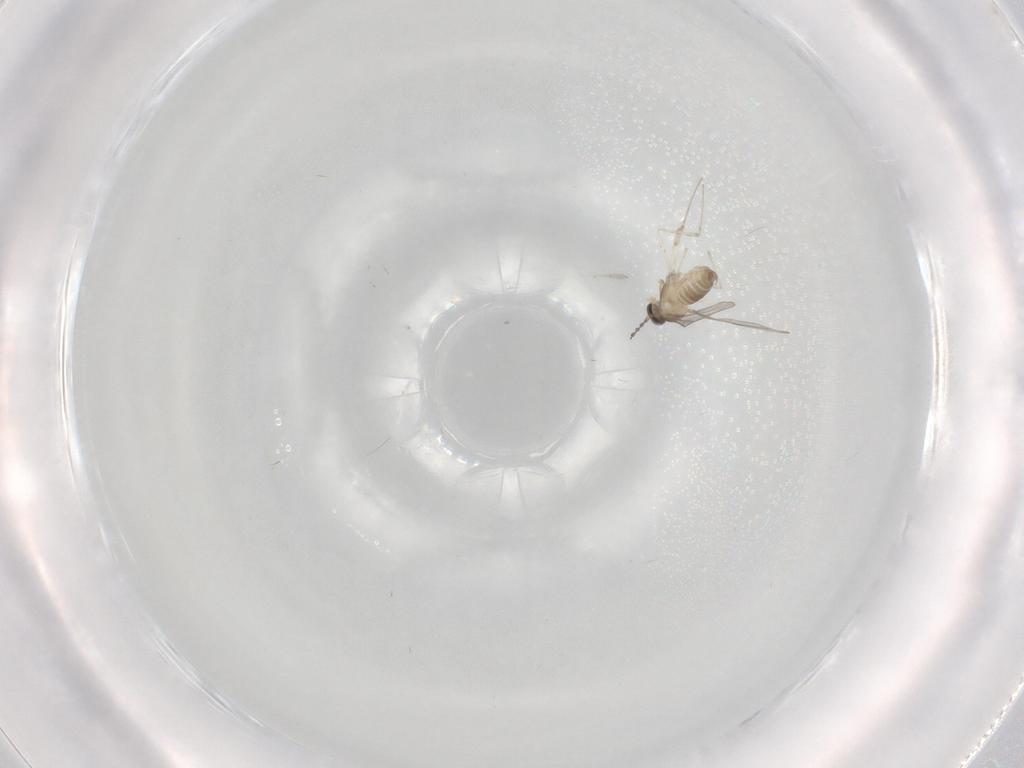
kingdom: Animalia
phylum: Arthropoda
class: Insecta
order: Diptera
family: Cecidomyiidae
